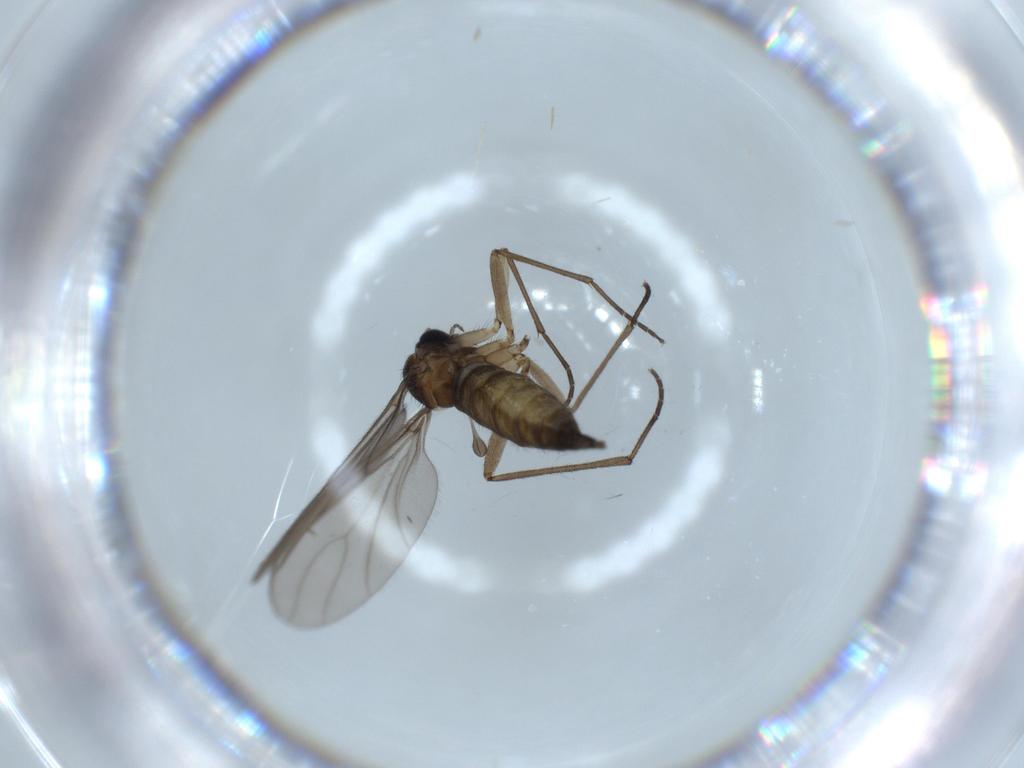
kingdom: Animalia
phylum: Arthropoda
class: Insecta
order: Diptera
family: Sciaridae
